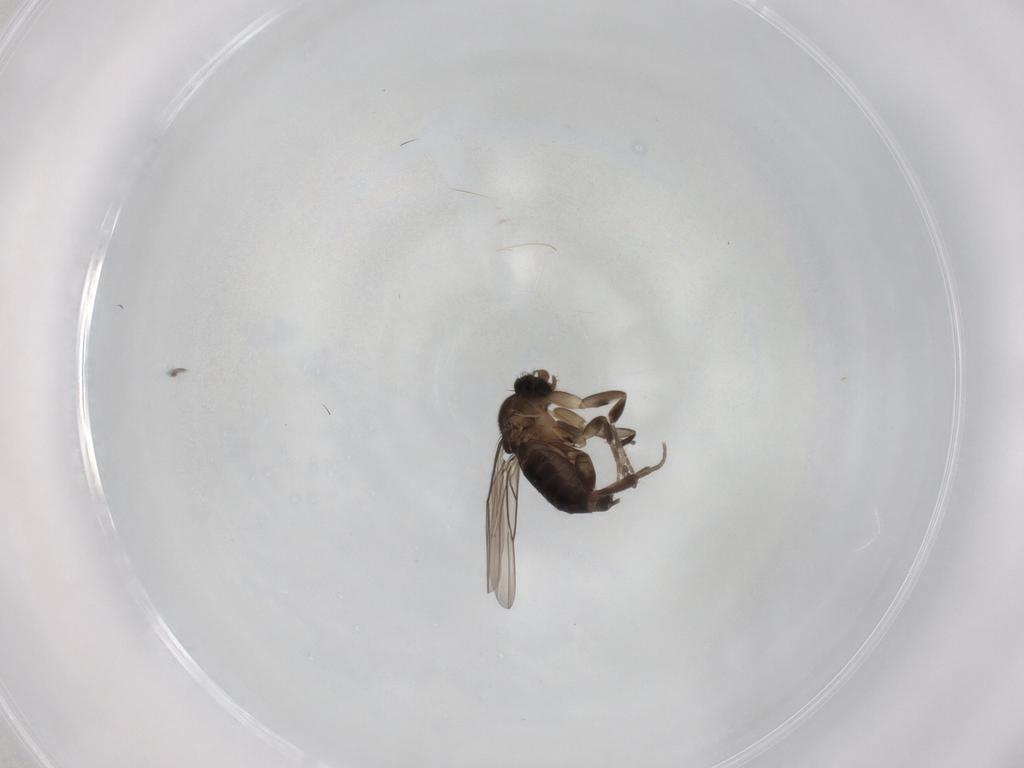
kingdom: Animalia
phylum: Arthropoda
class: Insecta
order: Diptera
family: Phoridae
